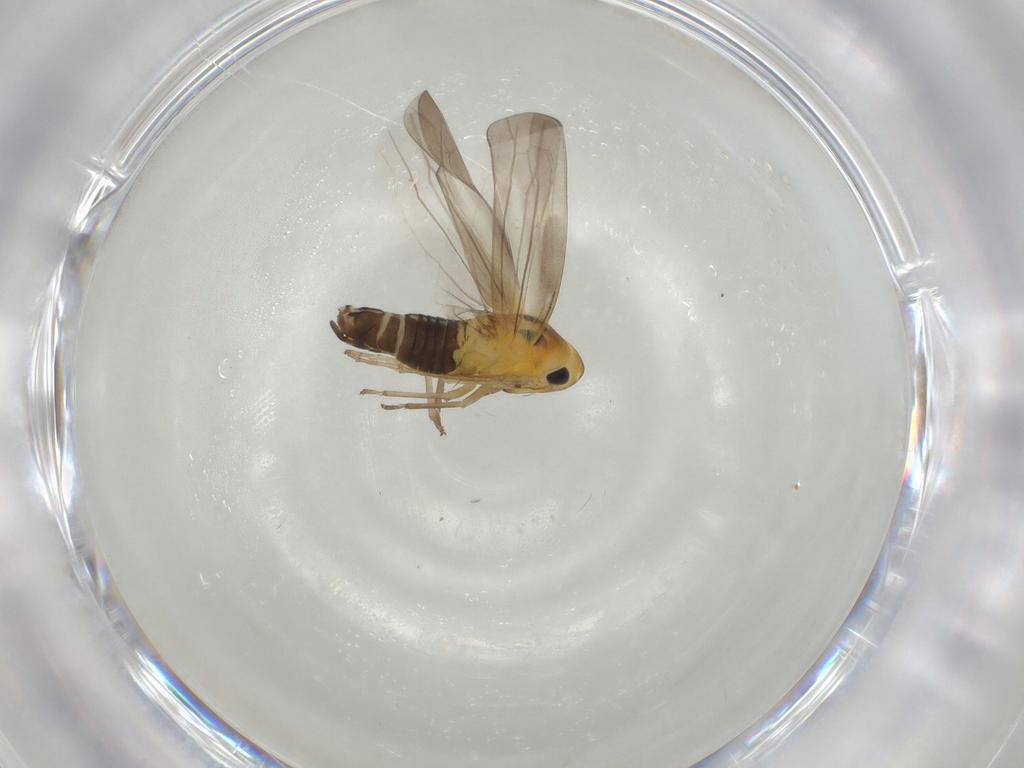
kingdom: Animalia
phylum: Arthropoda
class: Insecta
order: Hemiptera
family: Cicadellidae
